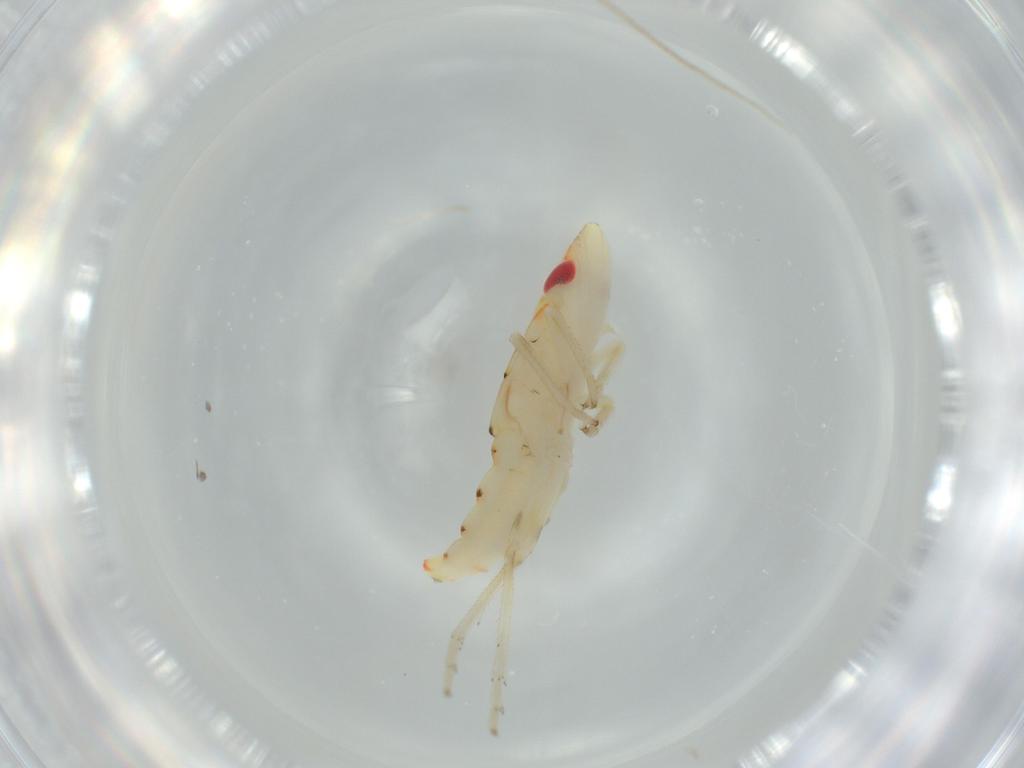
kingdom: Animalia
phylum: Arthropoda
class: Insecta
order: Hemiptera
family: Tropiduchidae
